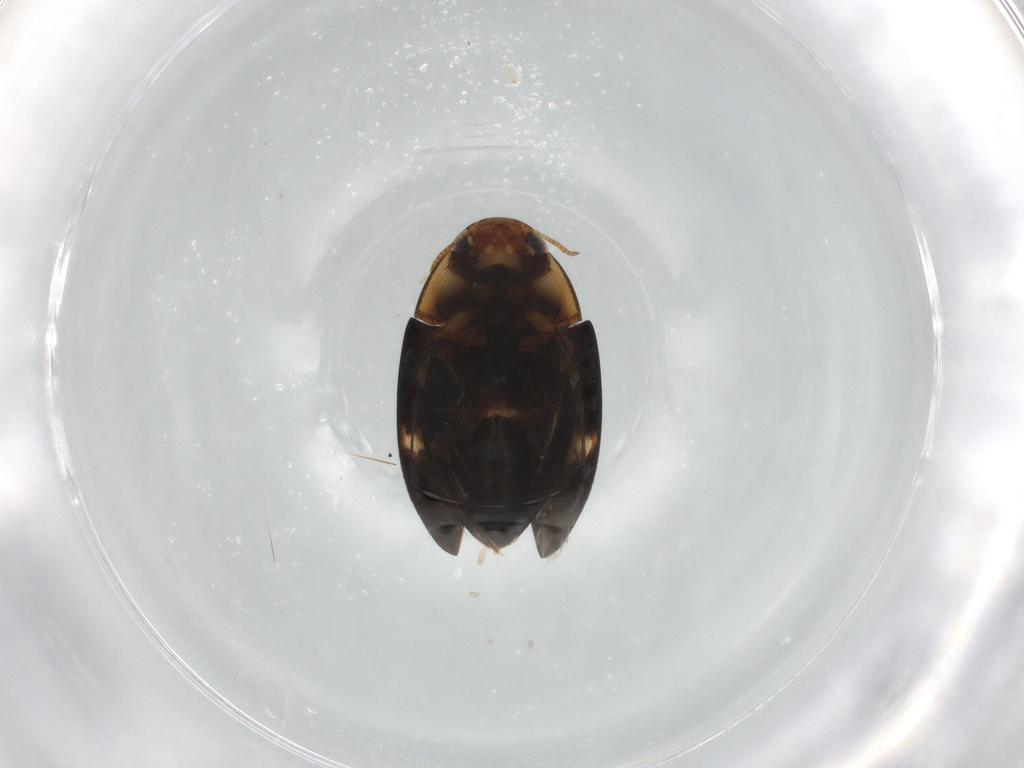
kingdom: Animalia
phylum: Arthropoda
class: Insecta
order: Coleoptera
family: Noteridae
